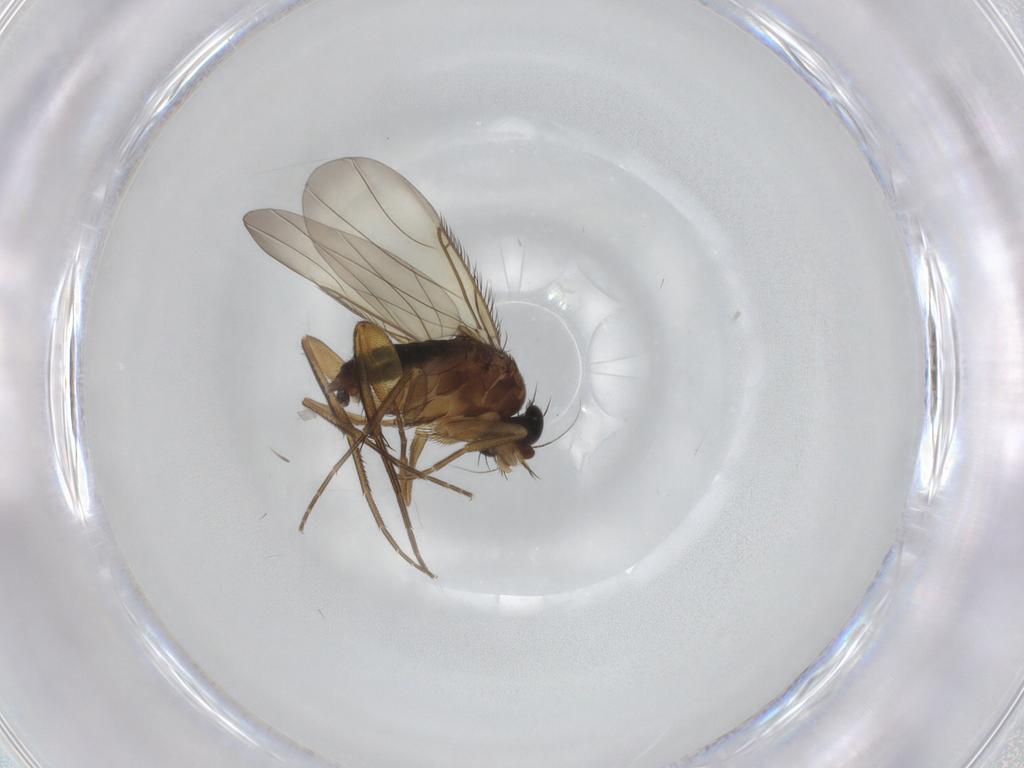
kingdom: Animalia
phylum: Arthropoda
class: Insecta
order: Diptera
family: Phoridae
